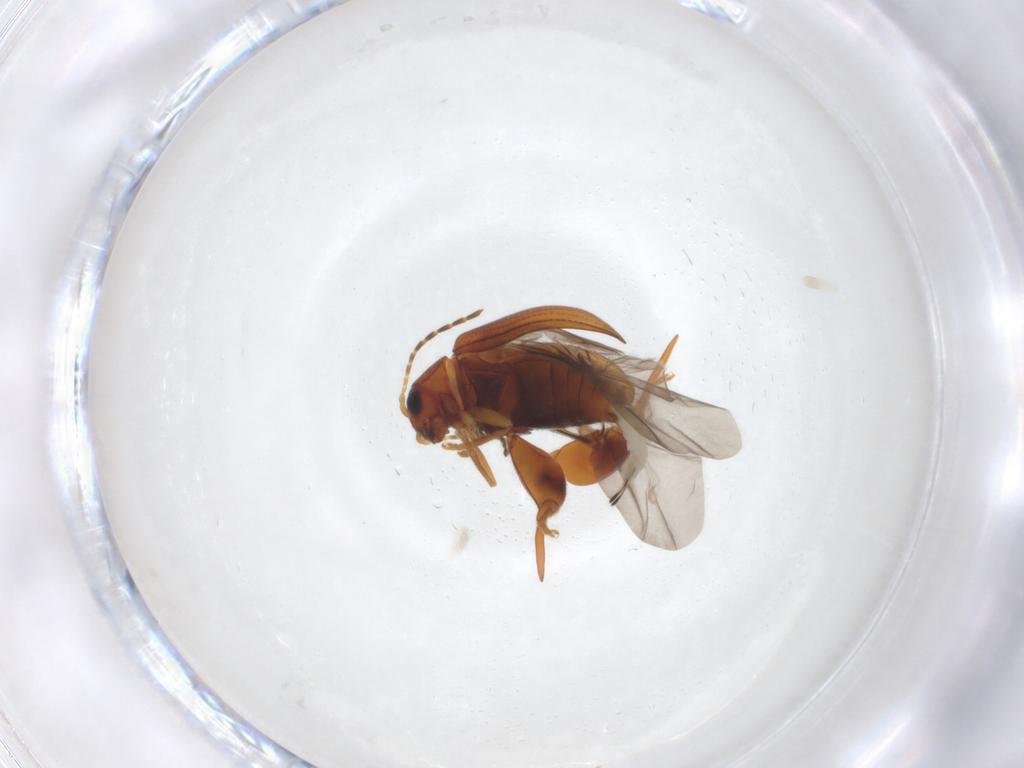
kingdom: Animalia
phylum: Arthropoda
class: Insecta
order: Coleoptera
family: Chrysomelidae
